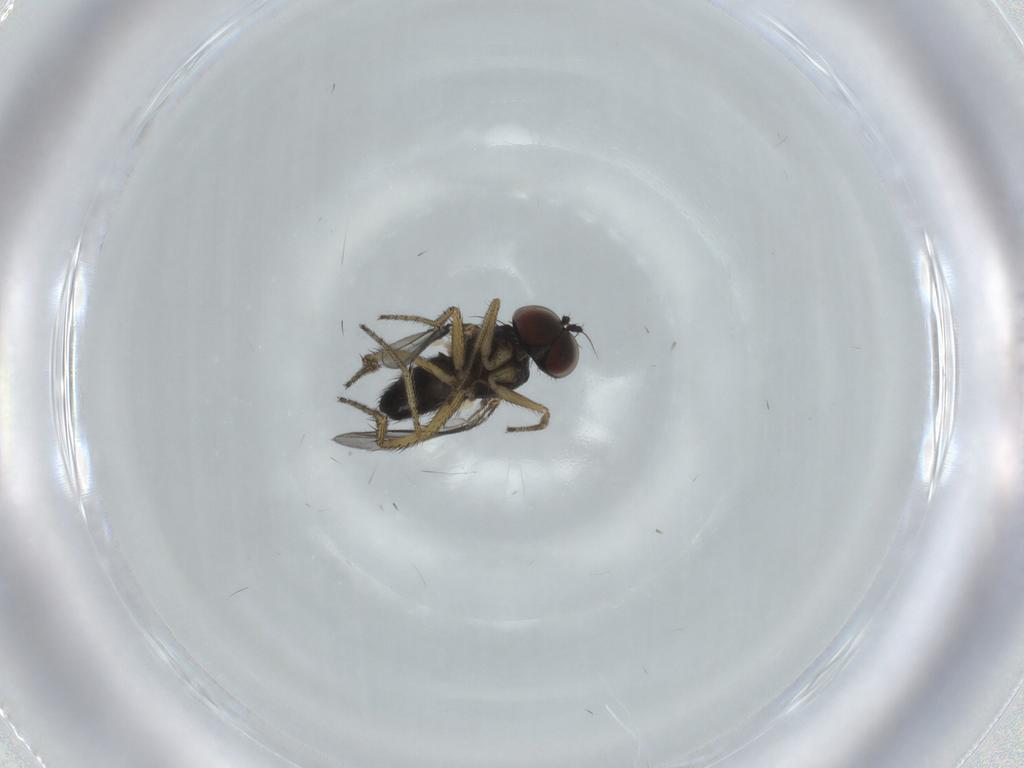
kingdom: Animalia
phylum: Arthropoda
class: Insecta
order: Diptera
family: Dolichopodidae
